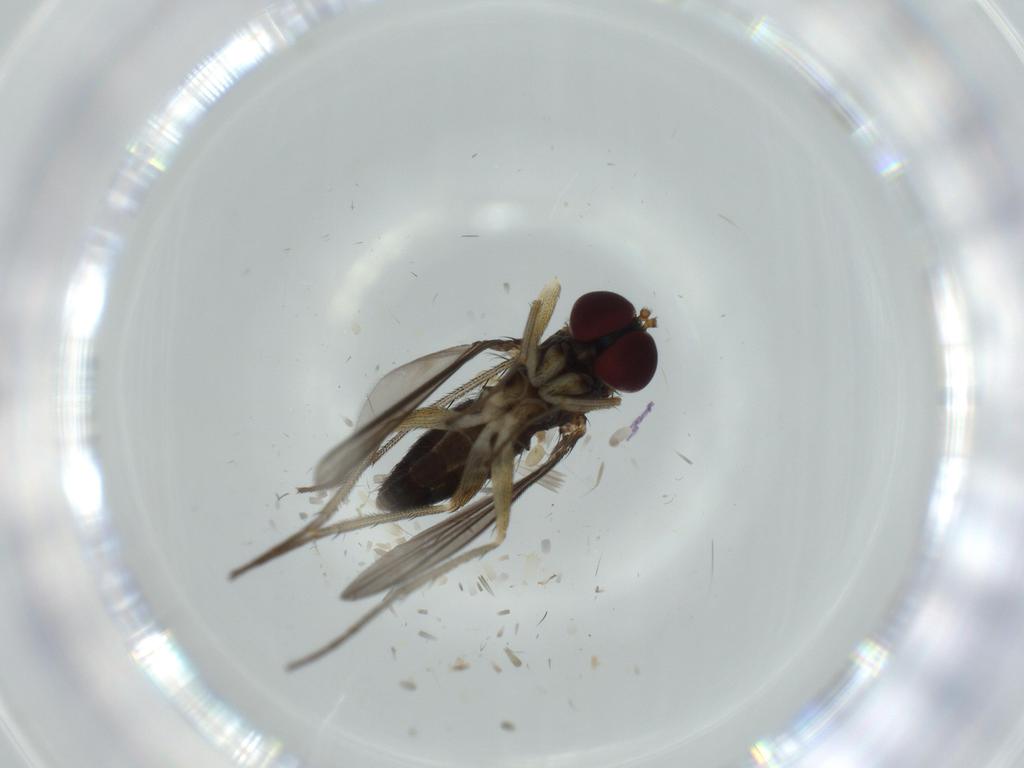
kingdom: Animalia
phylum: Arthropoda
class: Insecta
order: Diptera
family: Dolichopodidae
